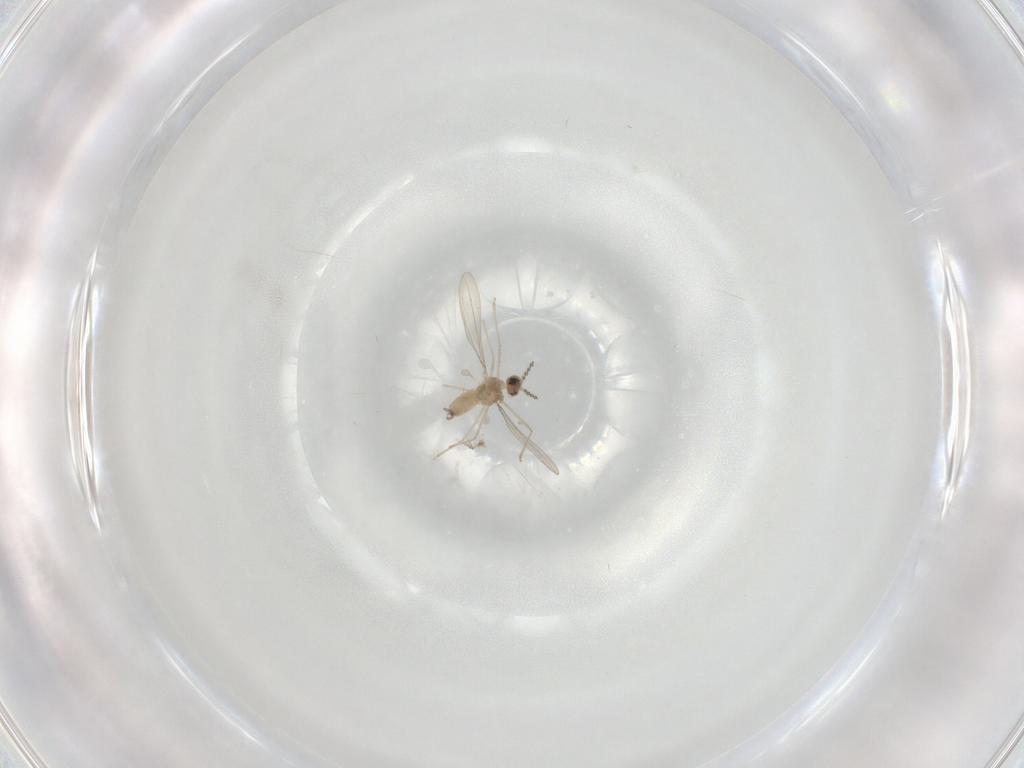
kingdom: Animalia
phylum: Arthropoda
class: Insecta
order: Diptera
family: Cecidomyiidae
